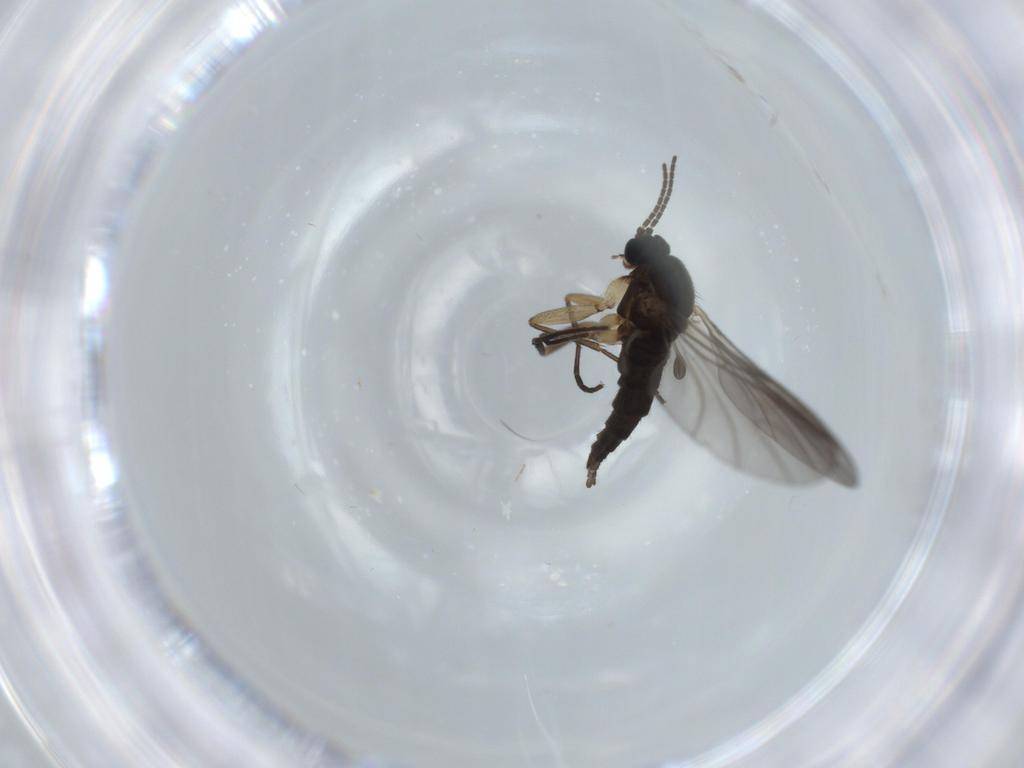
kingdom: Animalia
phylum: Arthropoda
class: Insecta
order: Diptera
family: Sciaridae
